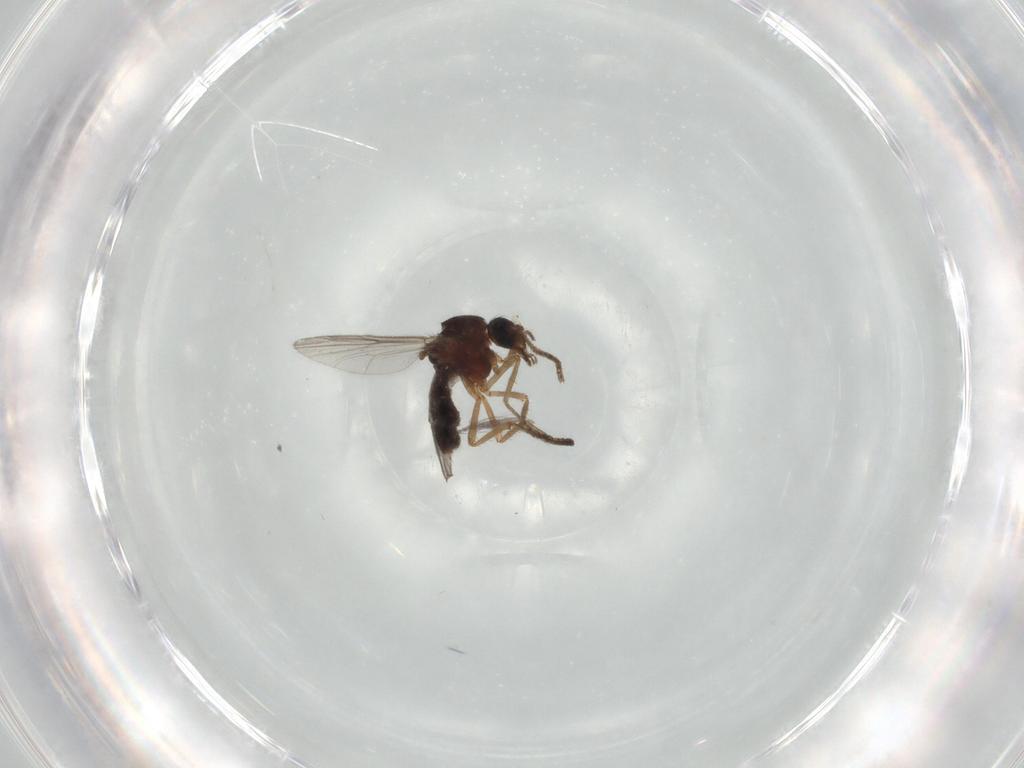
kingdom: Animalia
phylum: Arthropoda
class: Insecta
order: Diptera
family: Ceratopogonidae
